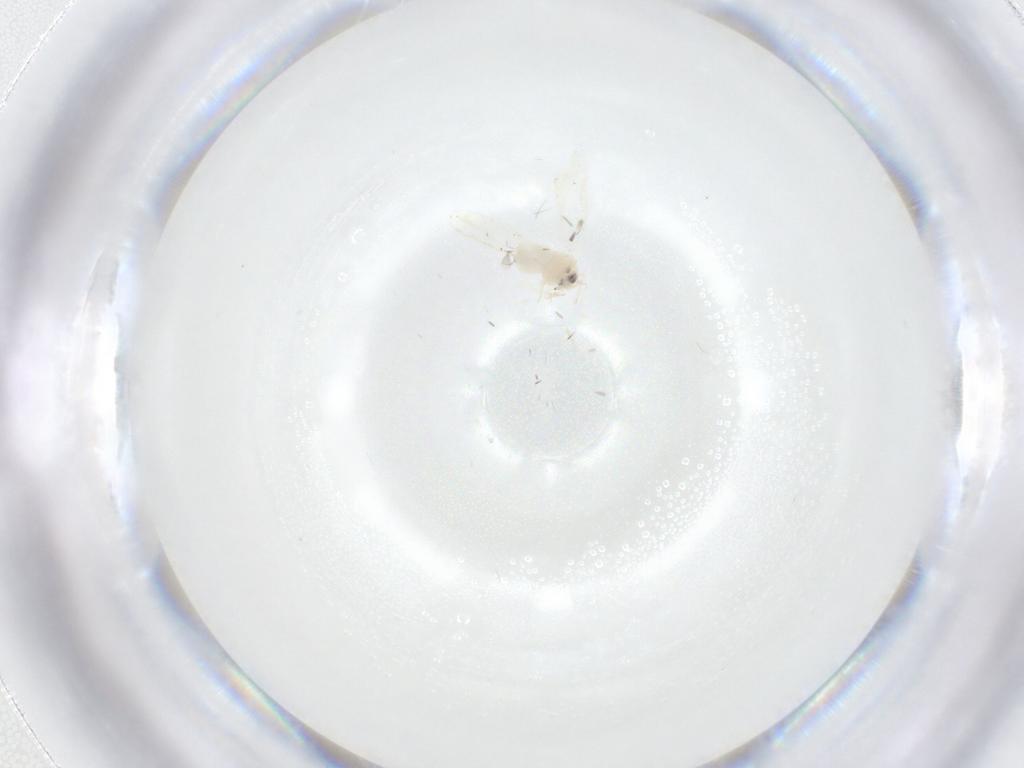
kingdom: Animalia
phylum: Arthropoda
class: Insecta
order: Hemiptera
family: Aleyrodidae
